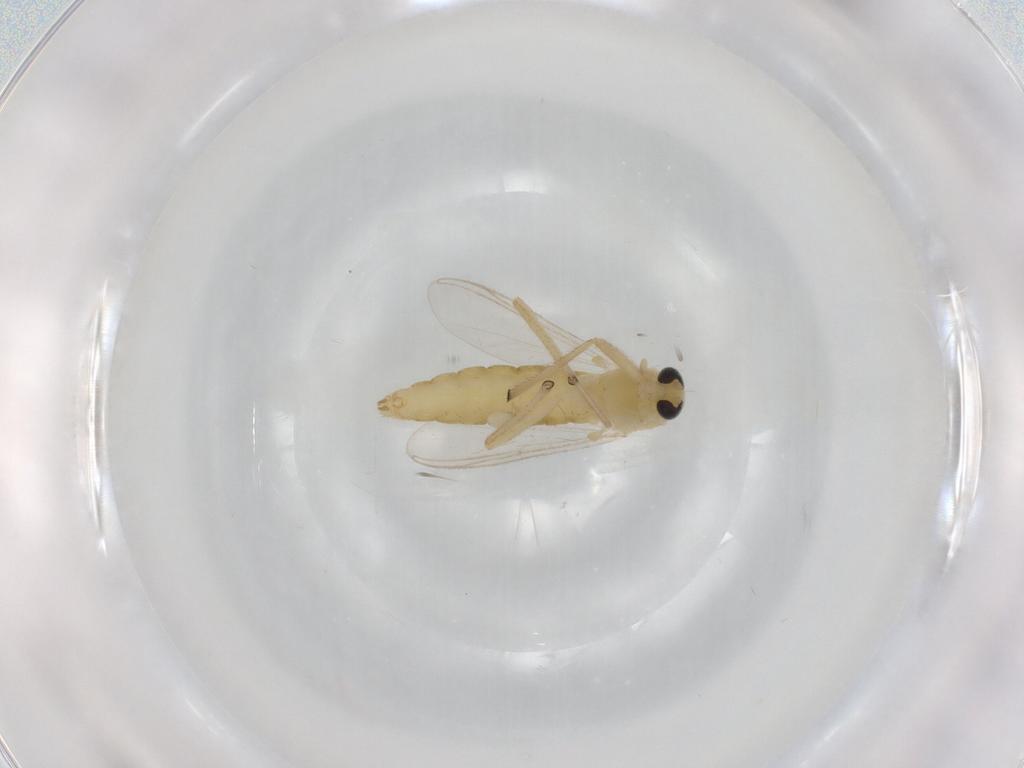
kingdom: Animalia
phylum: Arthropoda
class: Insecta
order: Diptera
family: Chironomidae
